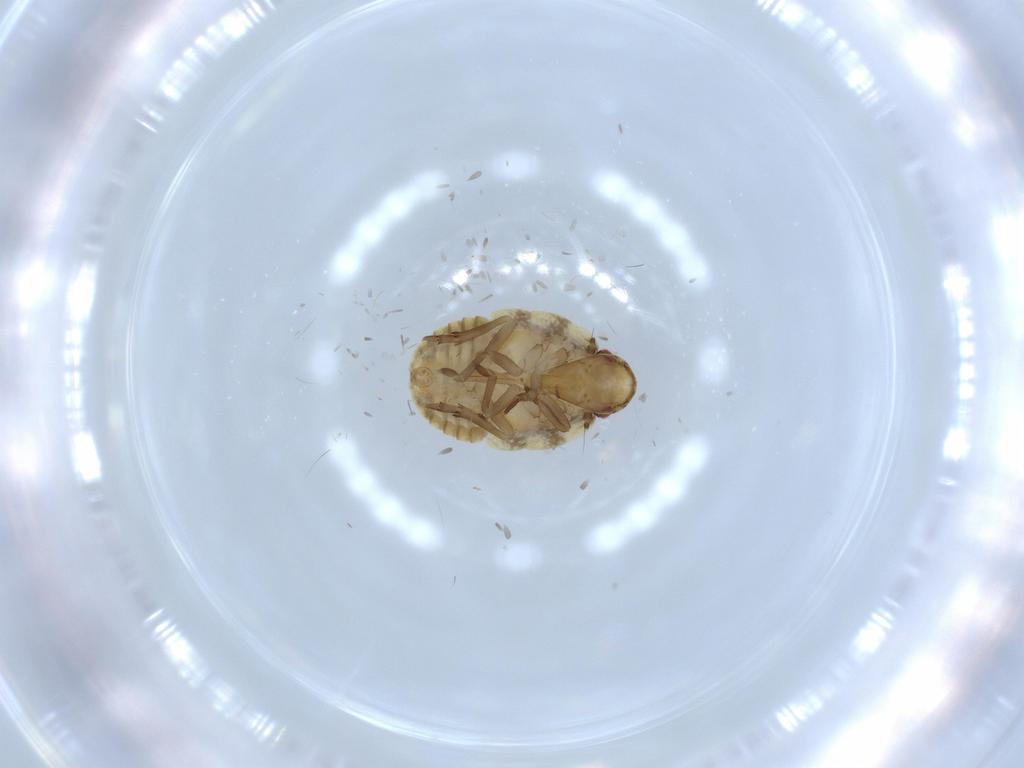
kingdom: Animalia
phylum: Arthropoda
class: Insecta
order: Hemiptera
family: Flatidae
